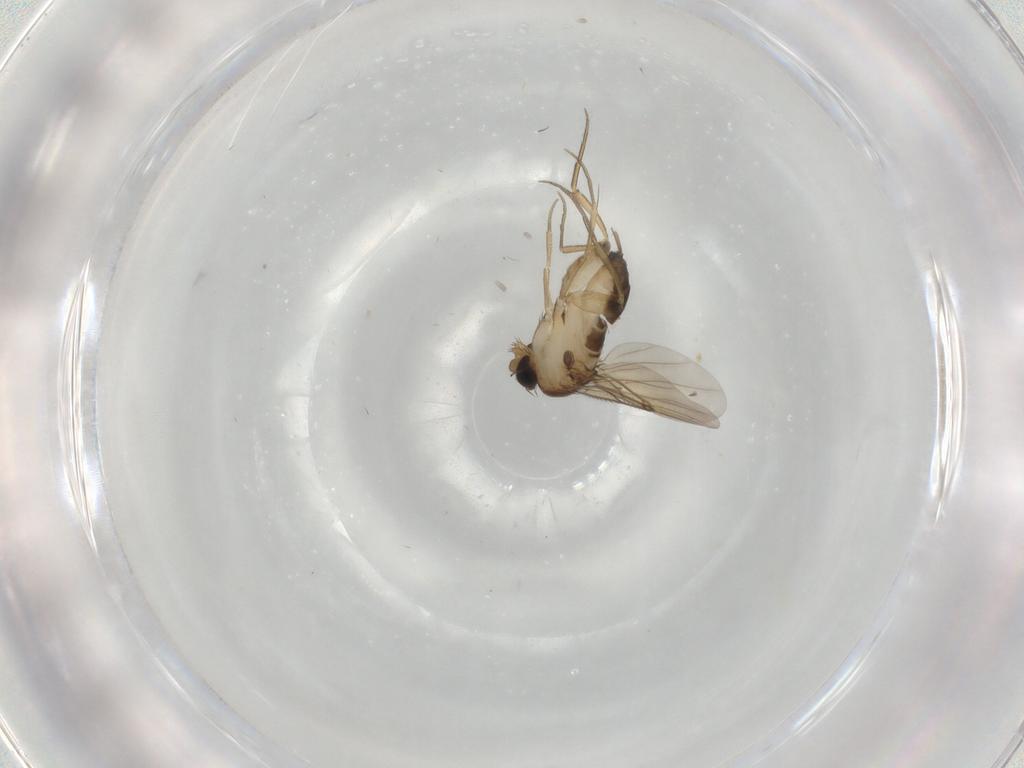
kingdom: Animalia
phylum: Arthropoda
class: Insecta
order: Diptera
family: Phoridae
